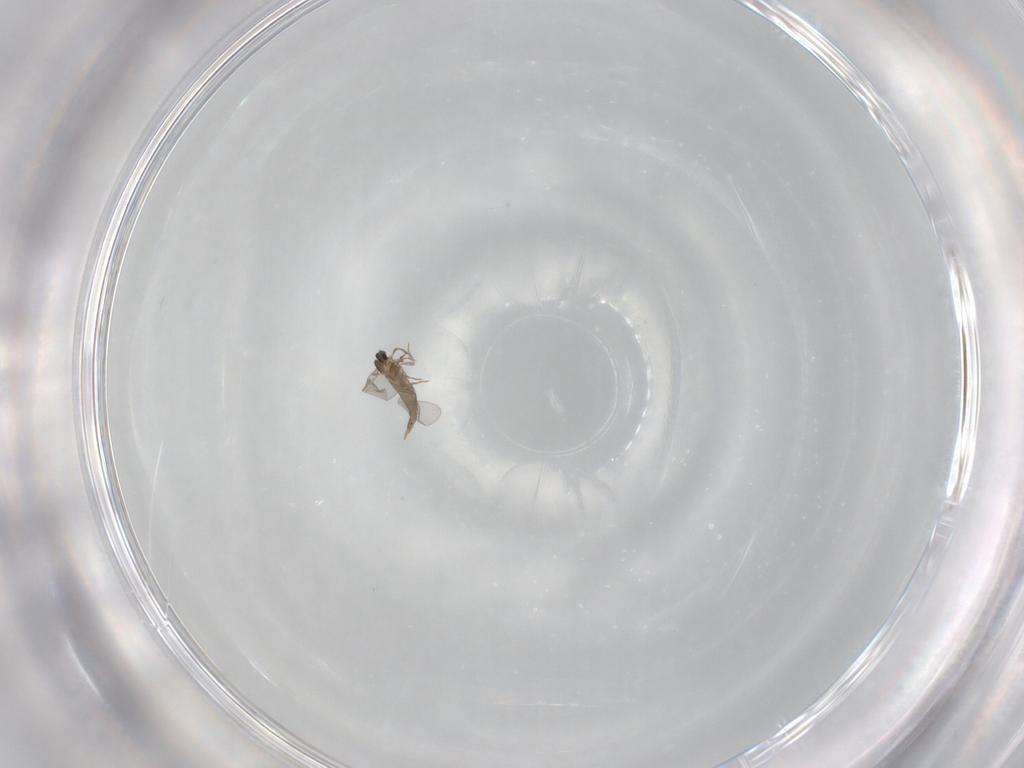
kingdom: Animalia
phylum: Arthropoda
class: Insecta
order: Diptera
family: Cecidomyiidae
